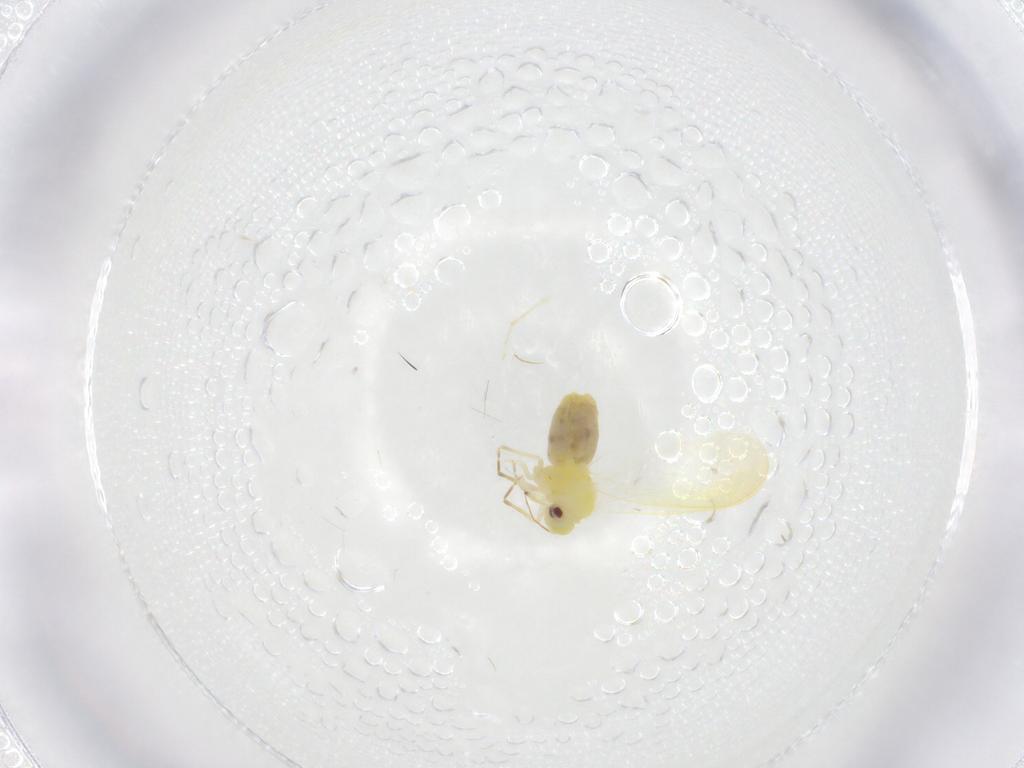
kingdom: Animalia
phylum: Arthropoda
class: Insecta
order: Hemiptera
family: Aleyrodidae
